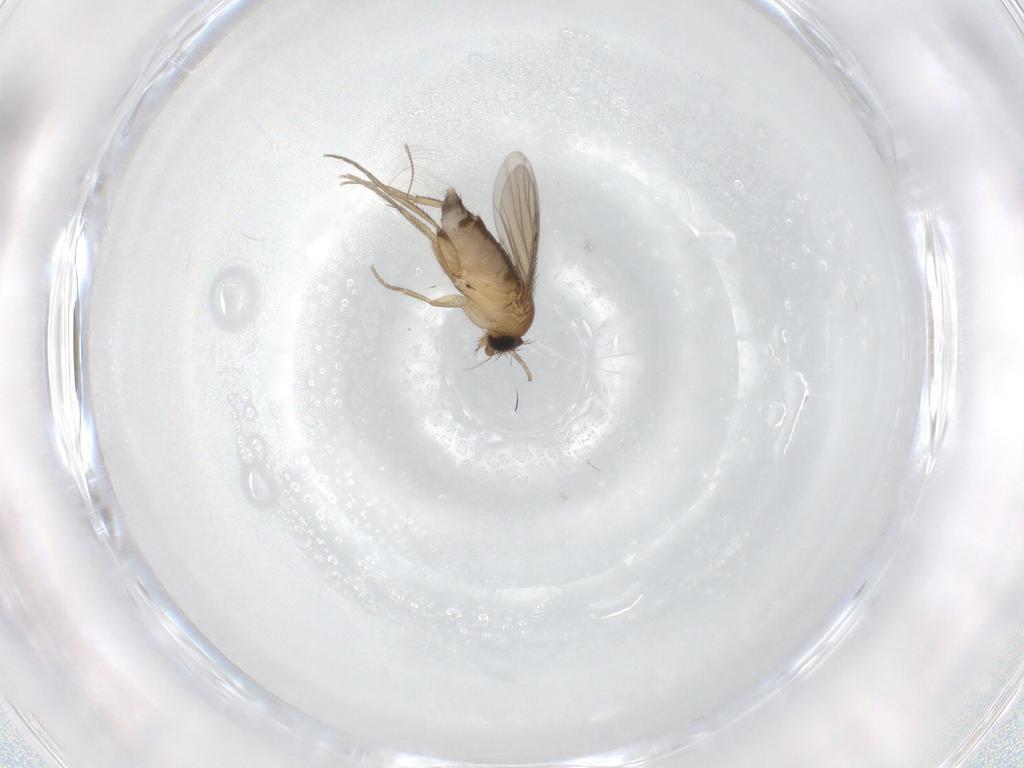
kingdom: Animalia
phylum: Arthropoda
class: Insecta
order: Diptera
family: Phoridae
